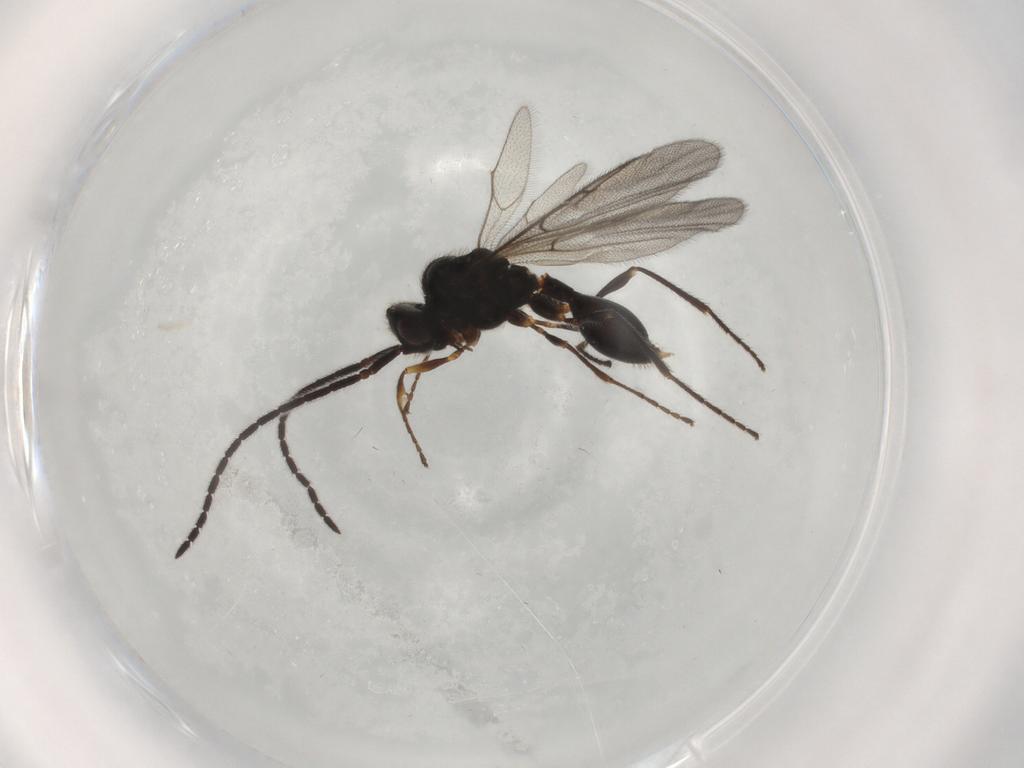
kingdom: Animalia
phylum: Arthropoda
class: Insecta
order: Hymenoptera
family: Diapriidae
